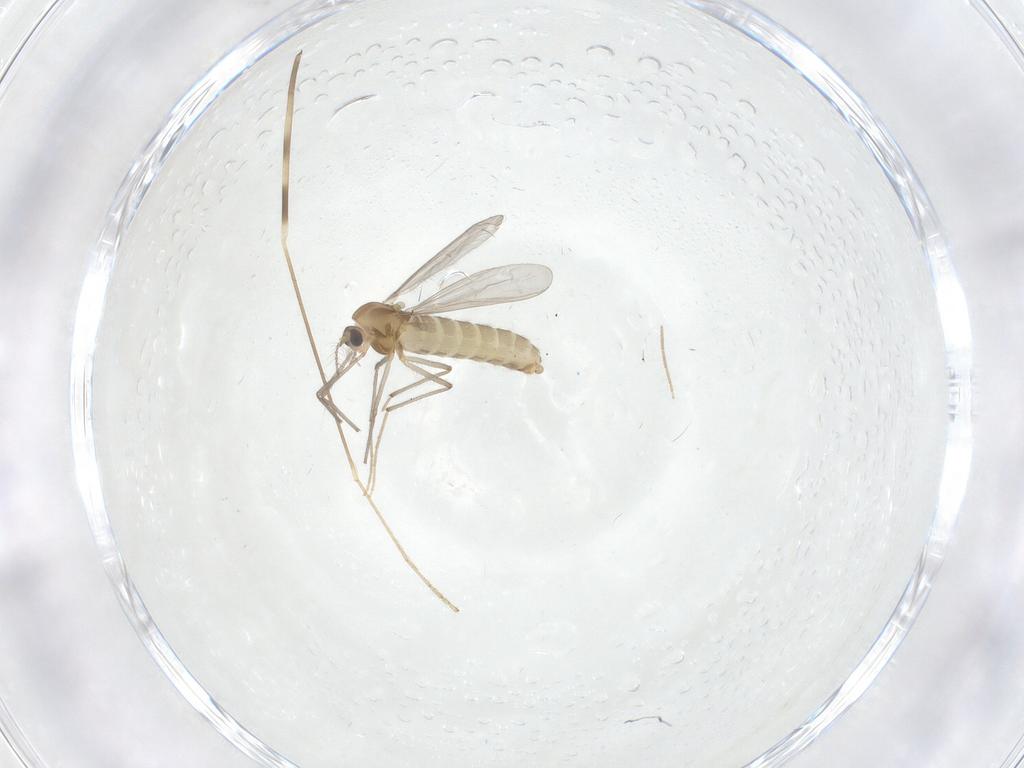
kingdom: Animalia
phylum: Arthropoda
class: Insecta
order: Diptera
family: Limoniidae
